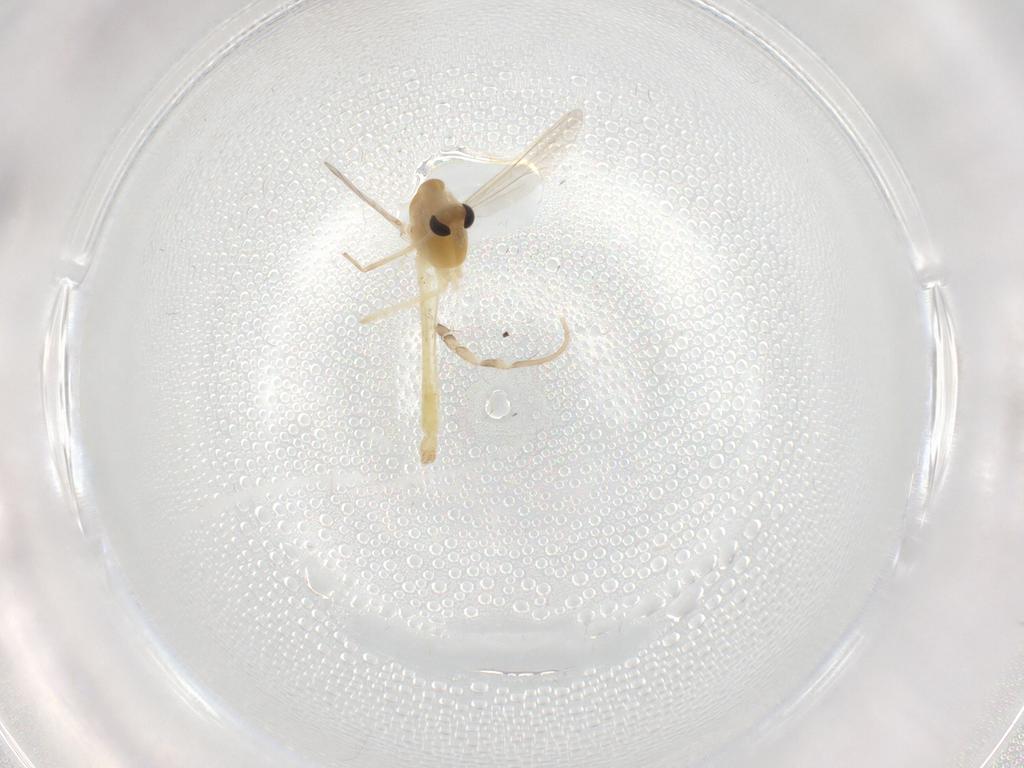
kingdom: Animalia
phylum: Arthropoda
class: Insecta
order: Diptera
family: Chironomidae
